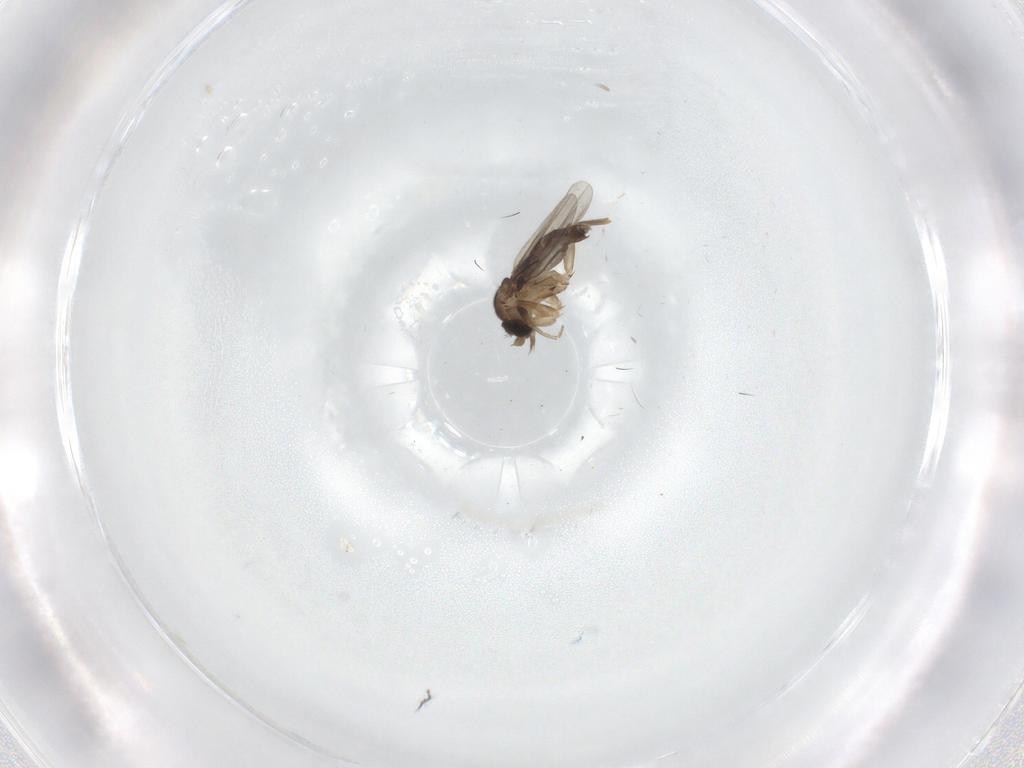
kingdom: Animalia
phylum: Arthropoda
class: Insecta
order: Diptera
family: Phoridae
